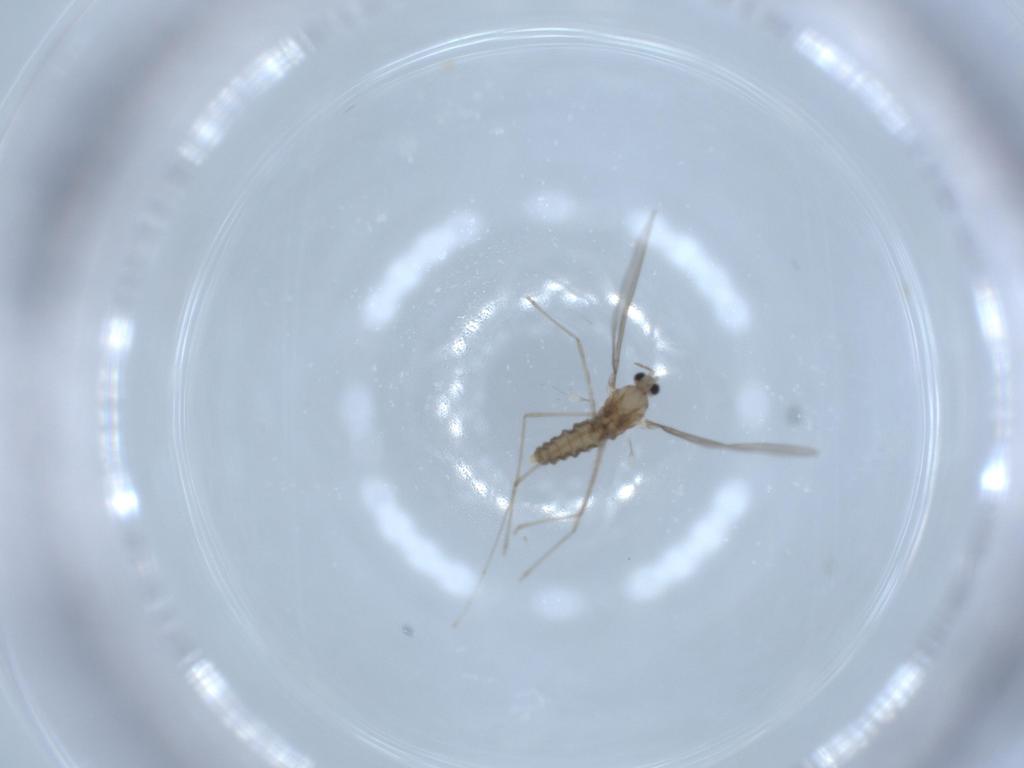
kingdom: Animalia
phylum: Arthropoda
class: Insecta
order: Diptera
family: Cecidomyiidae
